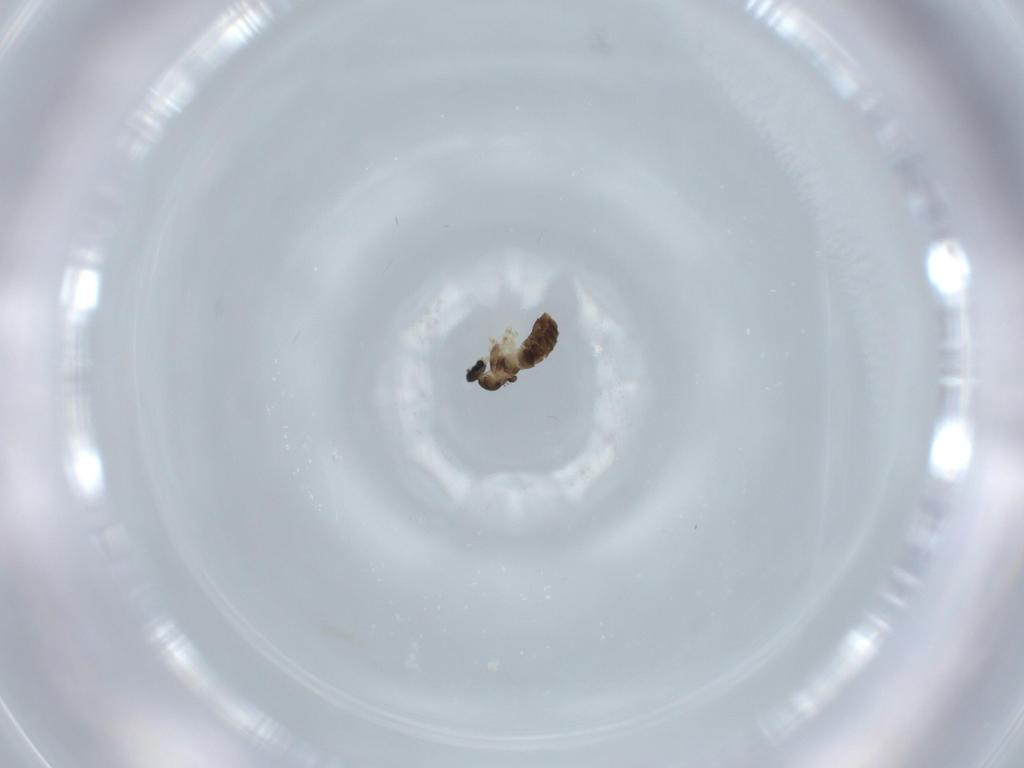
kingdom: Animalia
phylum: Arthropoda
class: Insecta
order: Diptera
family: Cecidomyiidae
